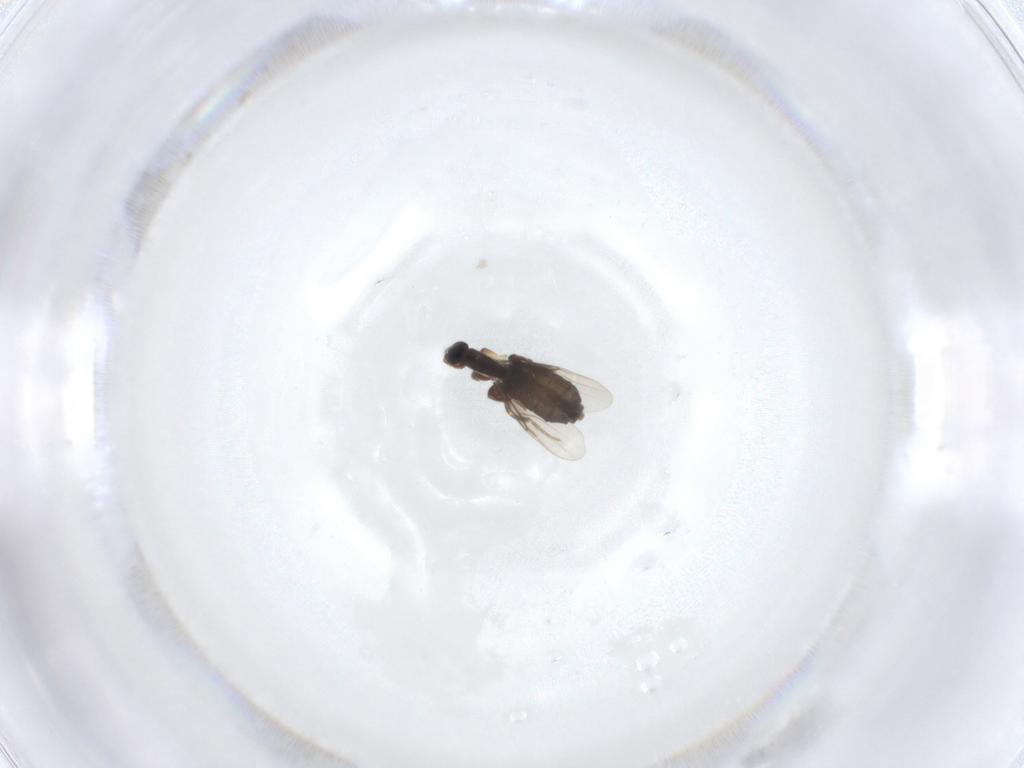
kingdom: Animalia
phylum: Arthropoda
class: Insecta
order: Diptera
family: Phoridae
